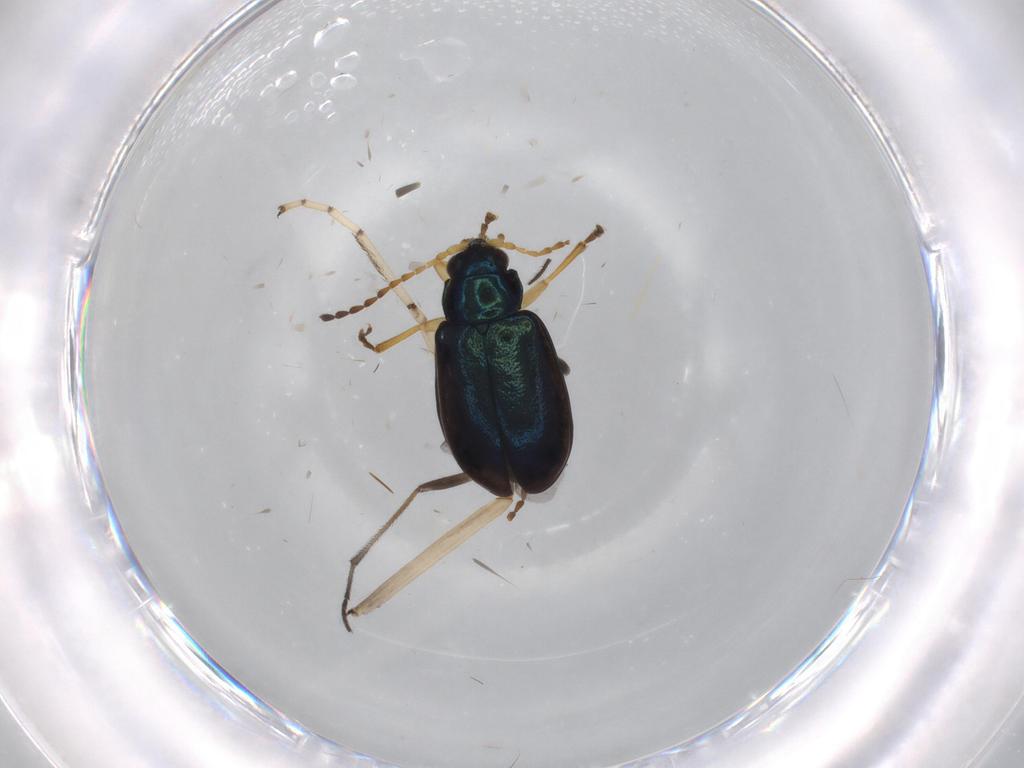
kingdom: Animalia
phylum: Arthropoda
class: Insecta
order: Coleoptera
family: Chrysomelidae
